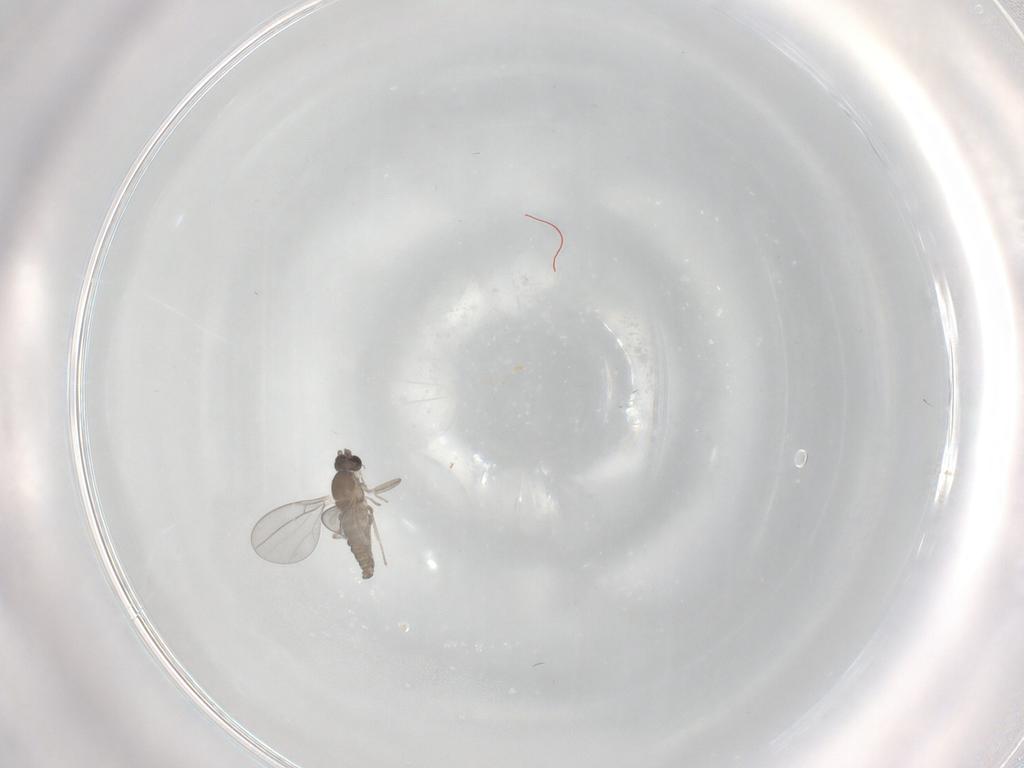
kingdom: Animalia
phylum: Arthropoda
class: Insecta
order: Diptera
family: Cecidomyiidae
